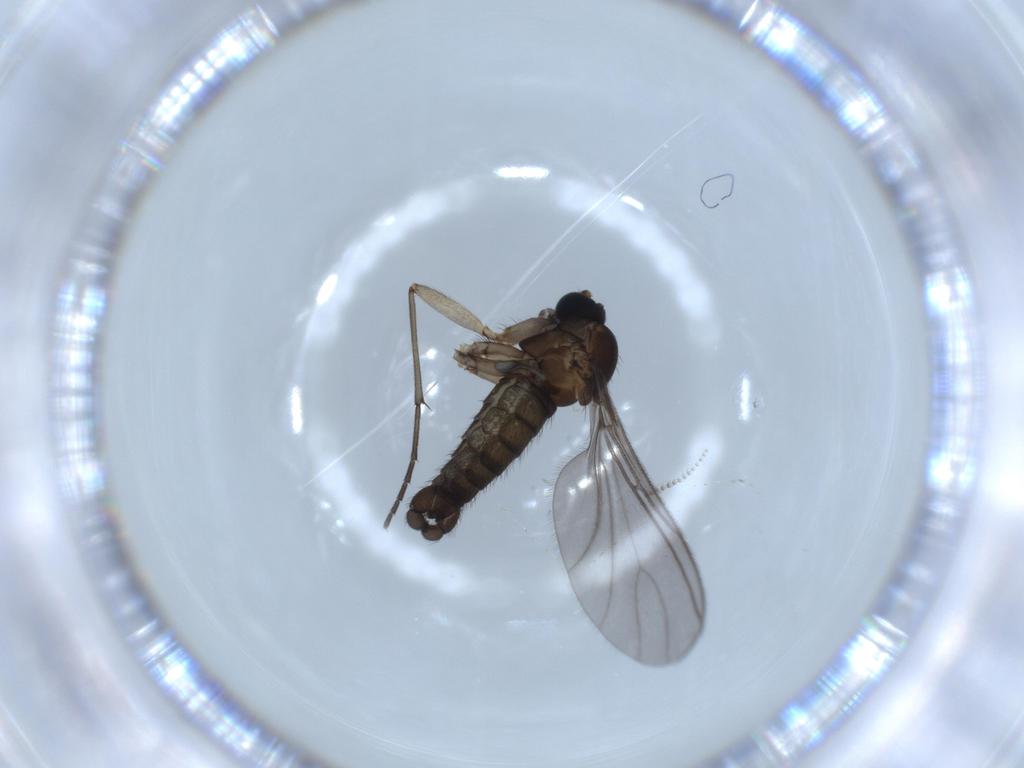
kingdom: Animalia
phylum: Arthropoda
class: Insecta
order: Diptera
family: Sciaridae
